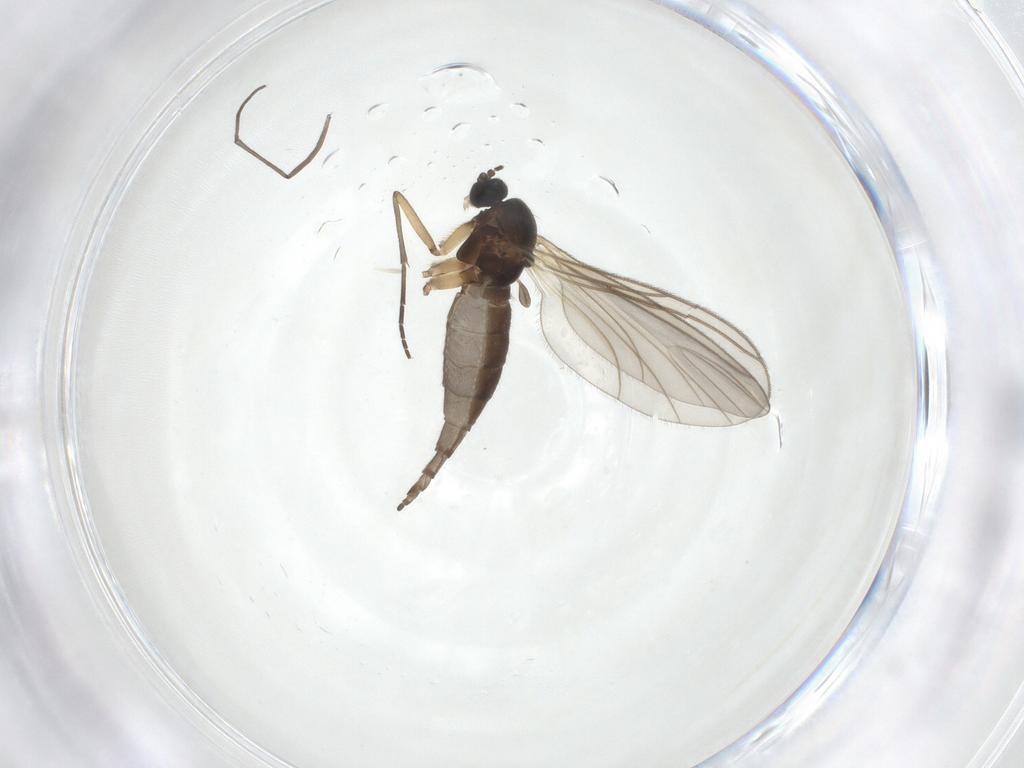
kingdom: Animalia
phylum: Arthropoda
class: Insecta
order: Diptera
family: Sciaridae
